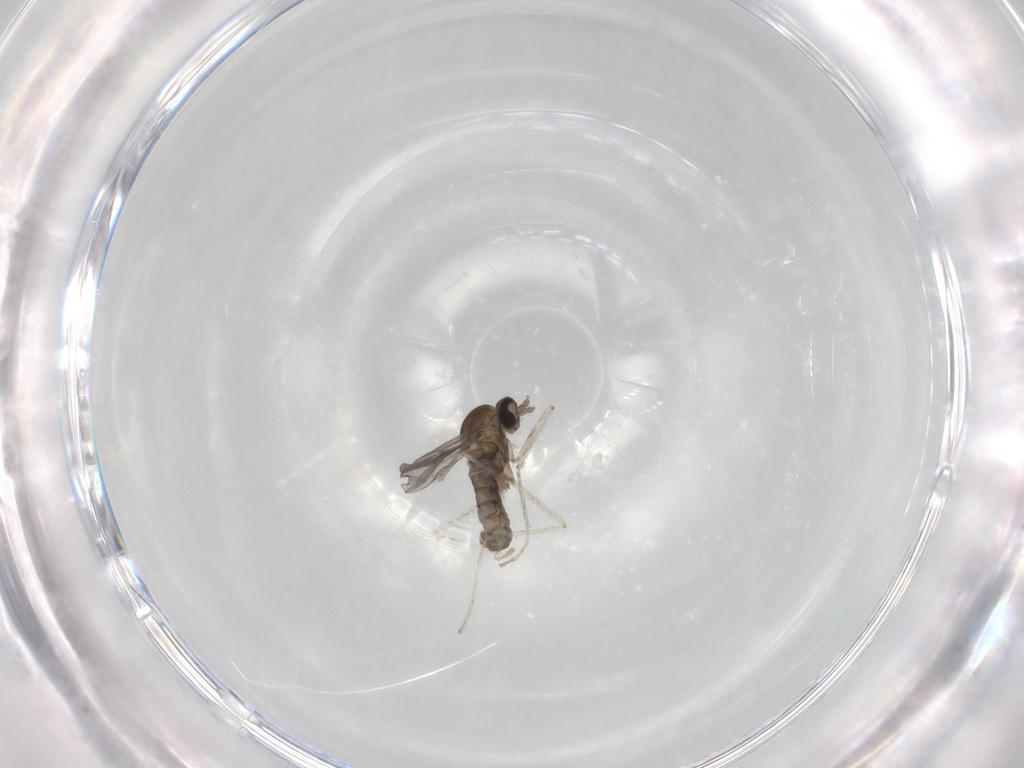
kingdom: Animalia
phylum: Arthropoda
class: Insecta
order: Diptera
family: Cecidomyiidae
